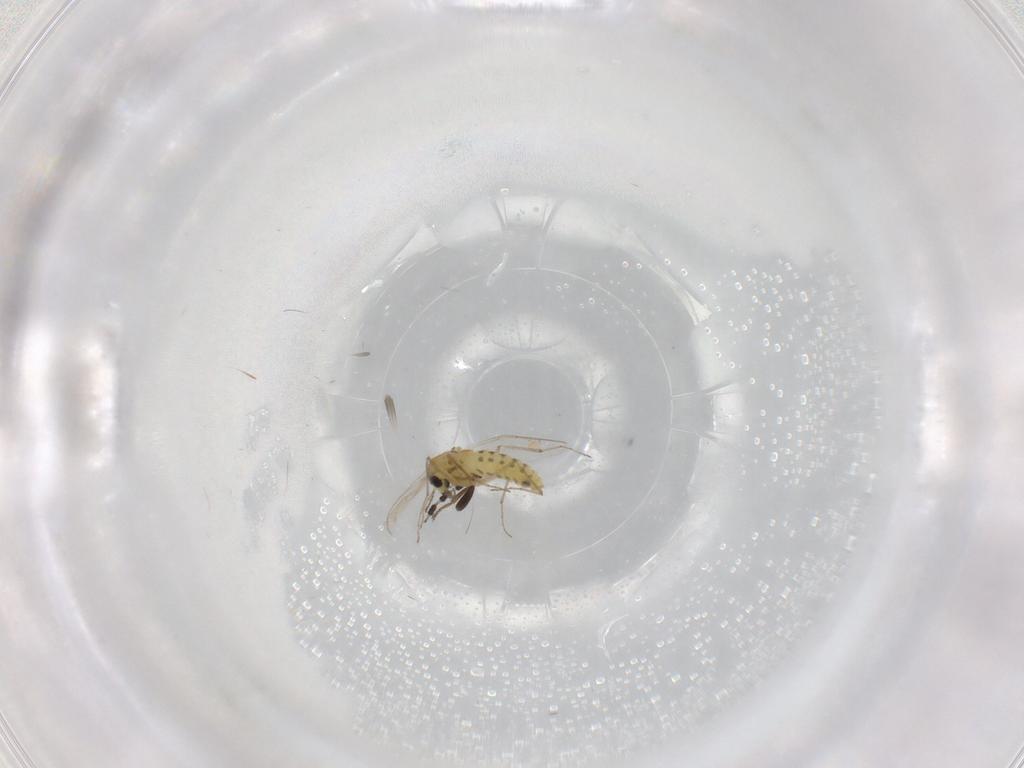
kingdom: Animalia
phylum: Arthropoda
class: Insecta
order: Diptera
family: Chironomidae
